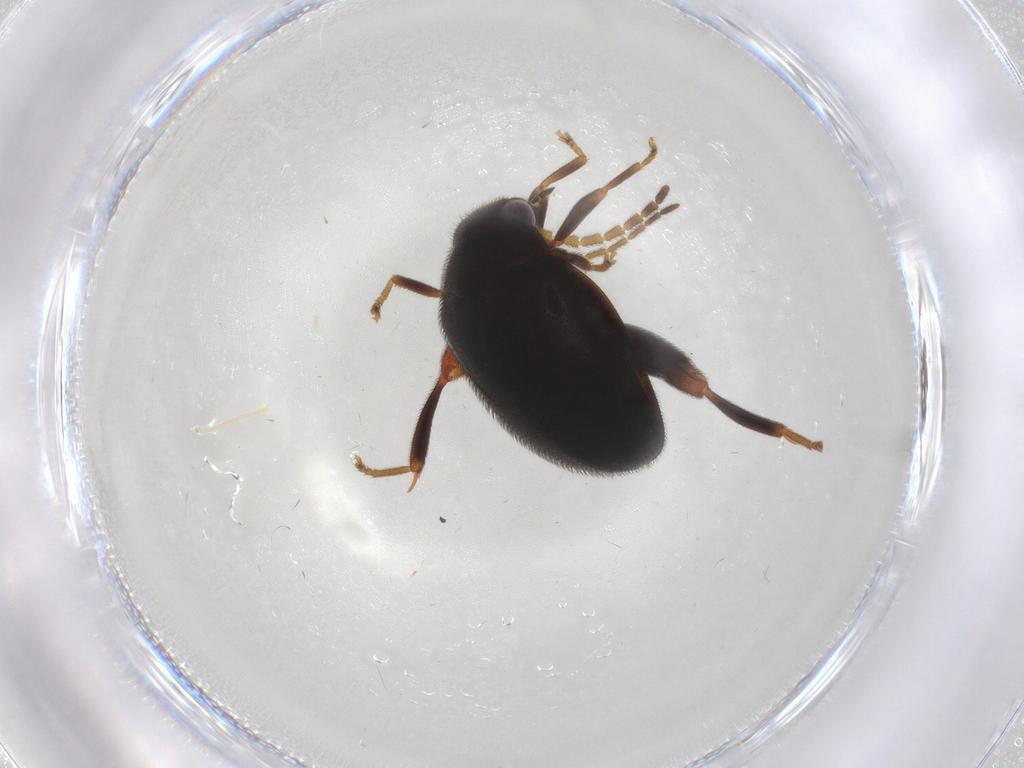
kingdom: Animalia
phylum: Arthropoda
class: Insecta
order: Coleoptera
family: Scirtidae
